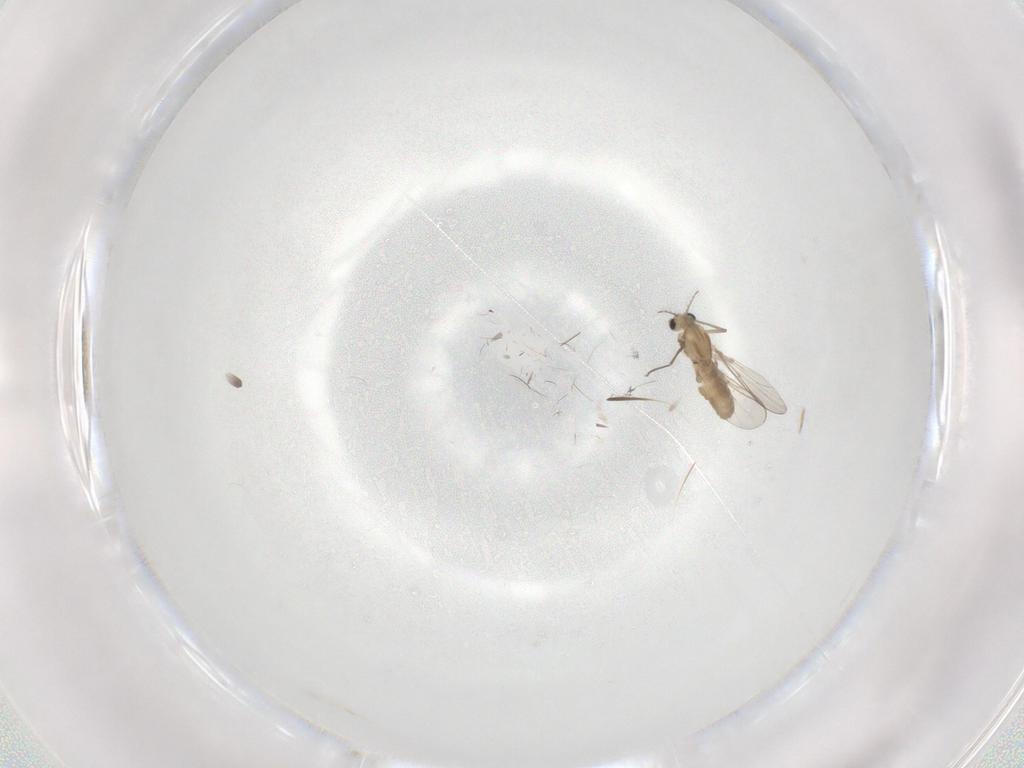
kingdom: Animalia
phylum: Arthropoda
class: Insecta
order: Diptera
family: Chironomidae
